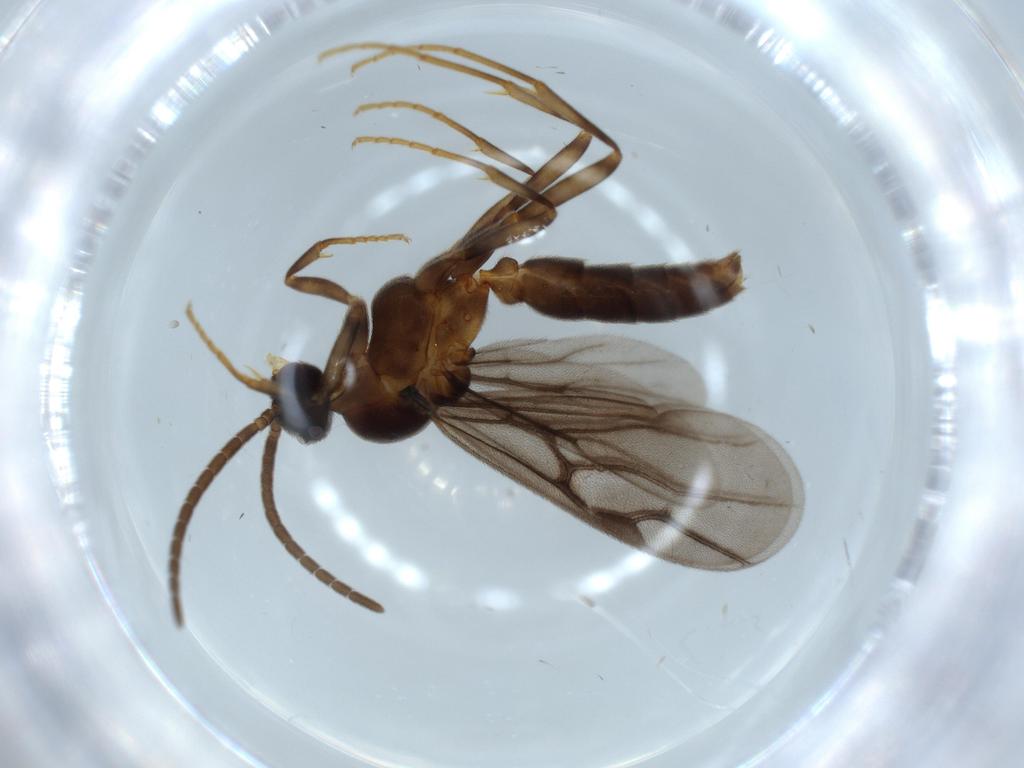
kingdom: Animalia
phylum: Arthropoda
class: Insecta
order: Hymenoptera
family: Formicidae
